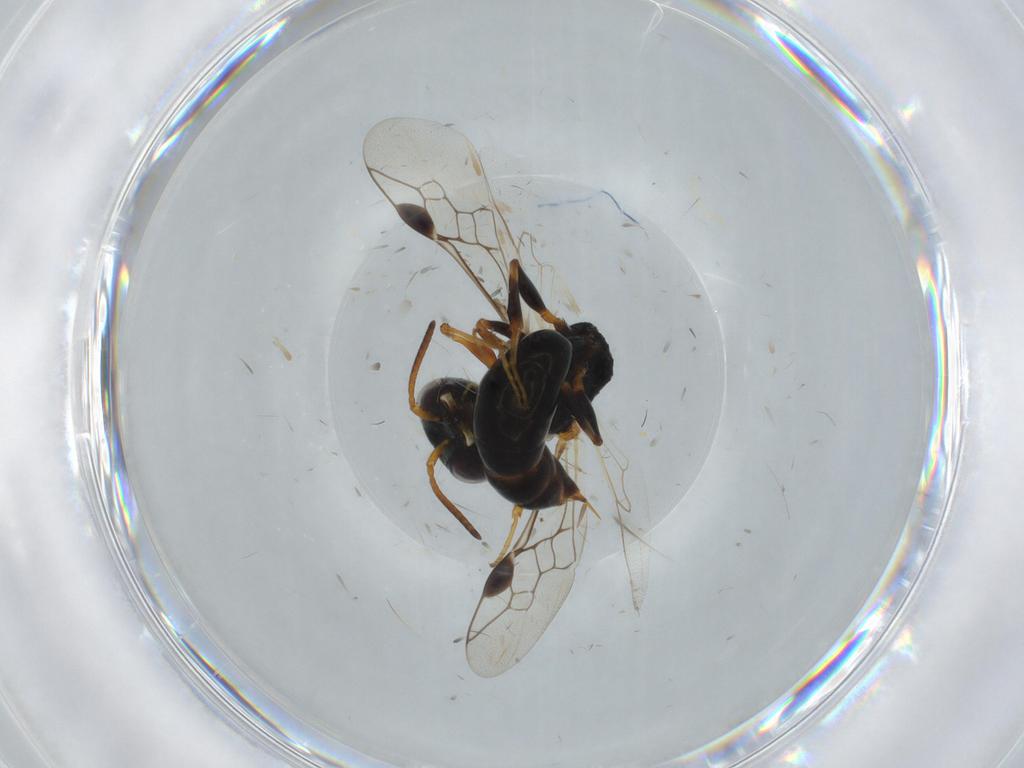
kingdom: Animalia
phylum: Arthropoda
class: Insecta
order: Hymenoptera
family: Pemphredonidae
